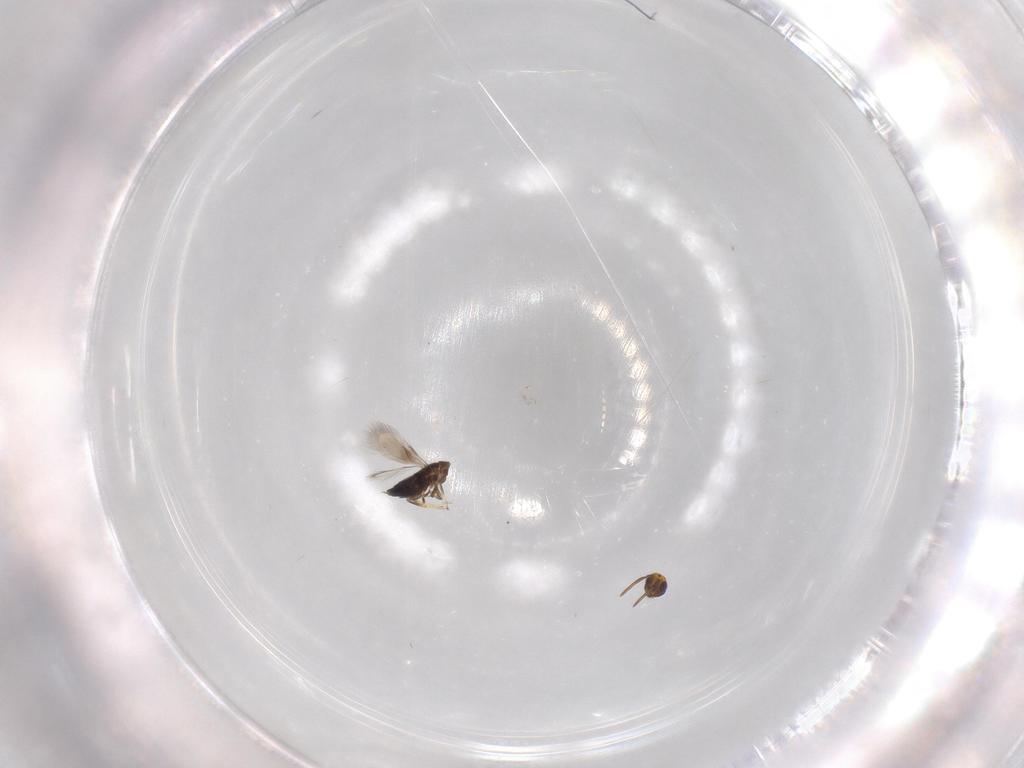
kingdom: Animalia
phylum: Arthropoda
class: Insecta
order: Hymenoptera
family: Signiphoridae
